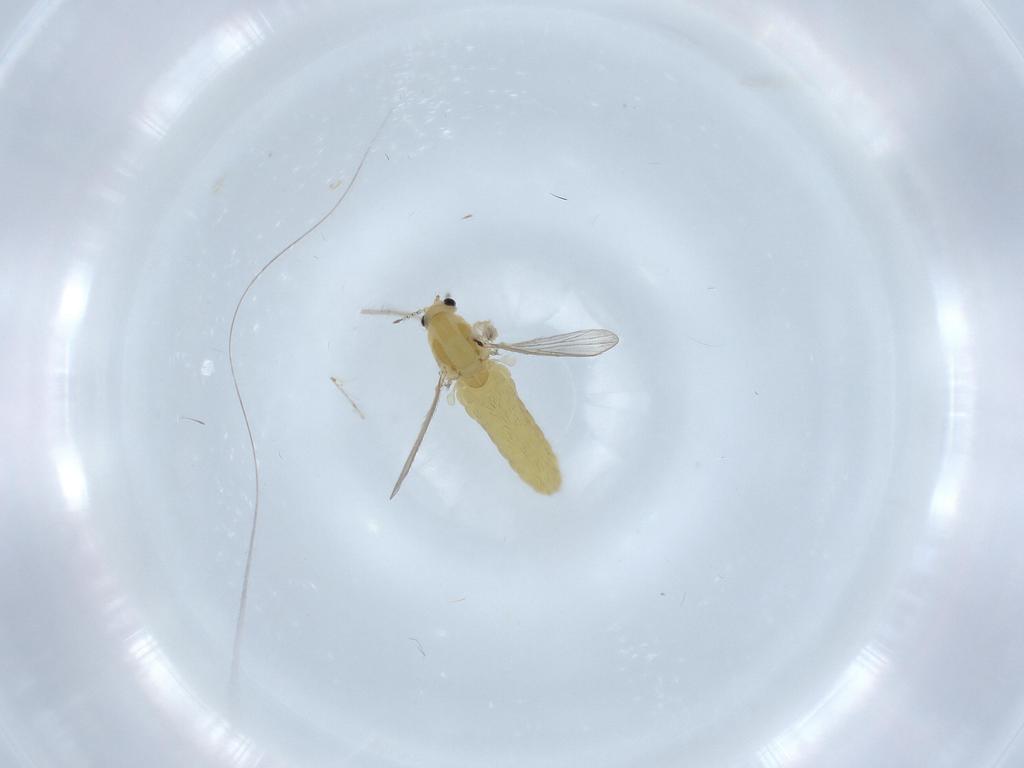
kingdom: Animalia
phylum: Arthropoda
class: Insecta
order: Diptera
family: Chironomidae
